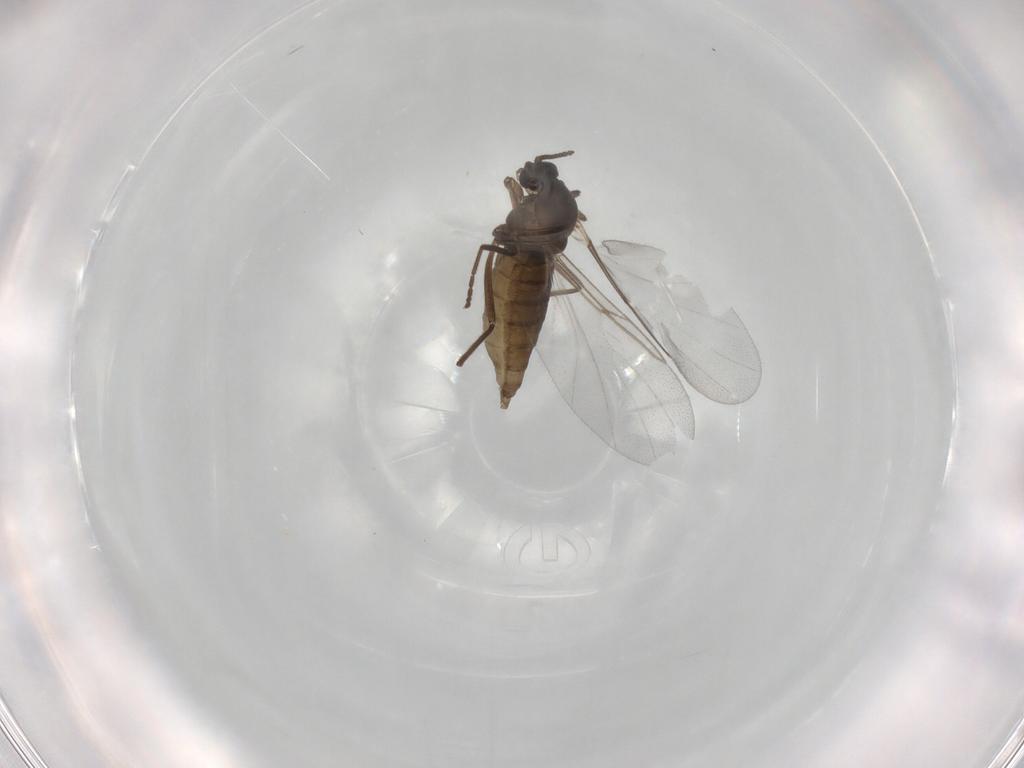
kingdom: Animalia
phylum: Arthropoda
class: Insecta
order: Diptera
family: Cecidomyiidae
